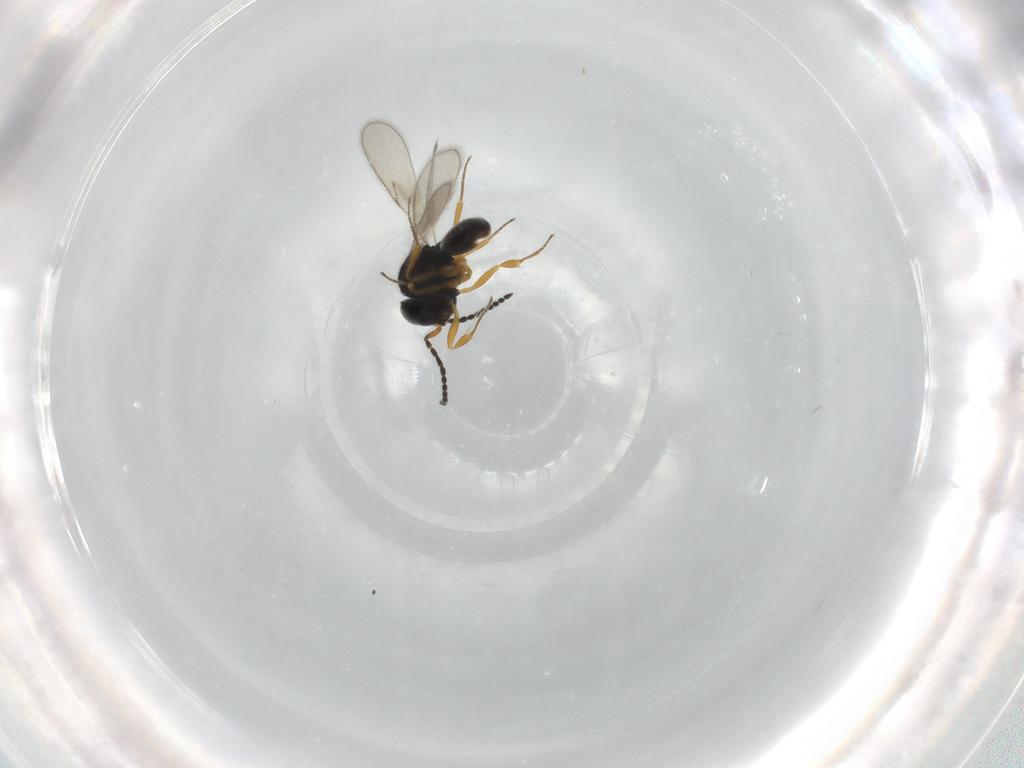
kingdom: Animalia
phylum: Arthropoda
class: Insecta
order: Hymenoptera
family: Scelionidae
